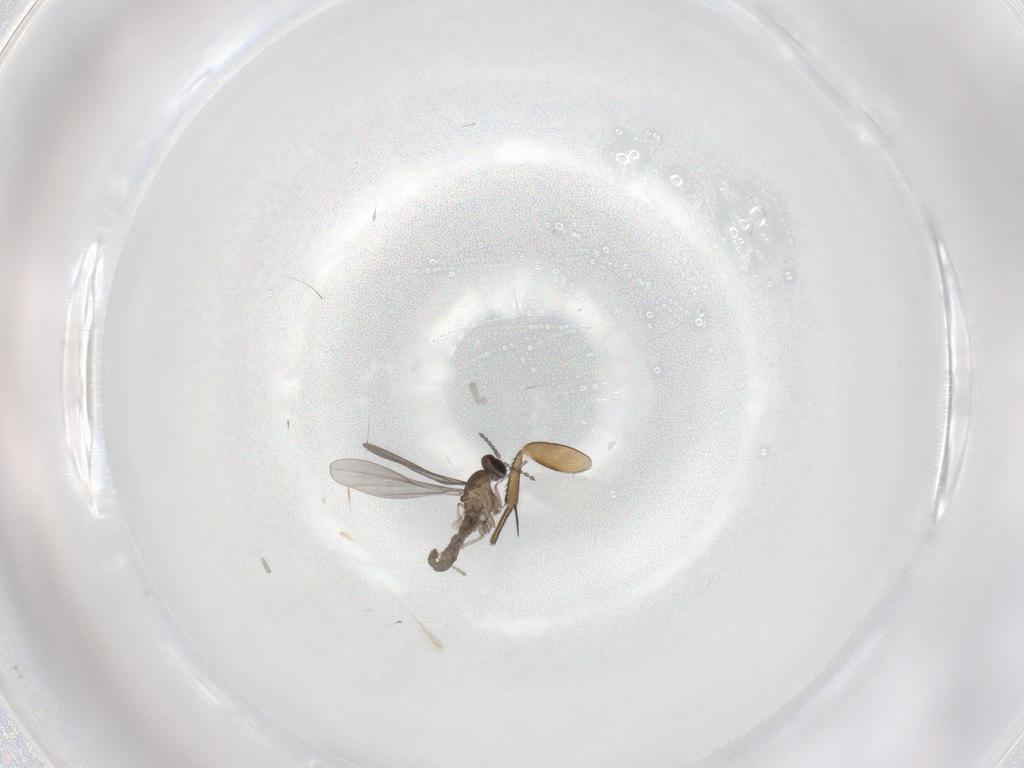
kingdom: Animalia
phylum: Arthropoda
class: Insecta
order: Diptera
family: Cecidomyiidae
